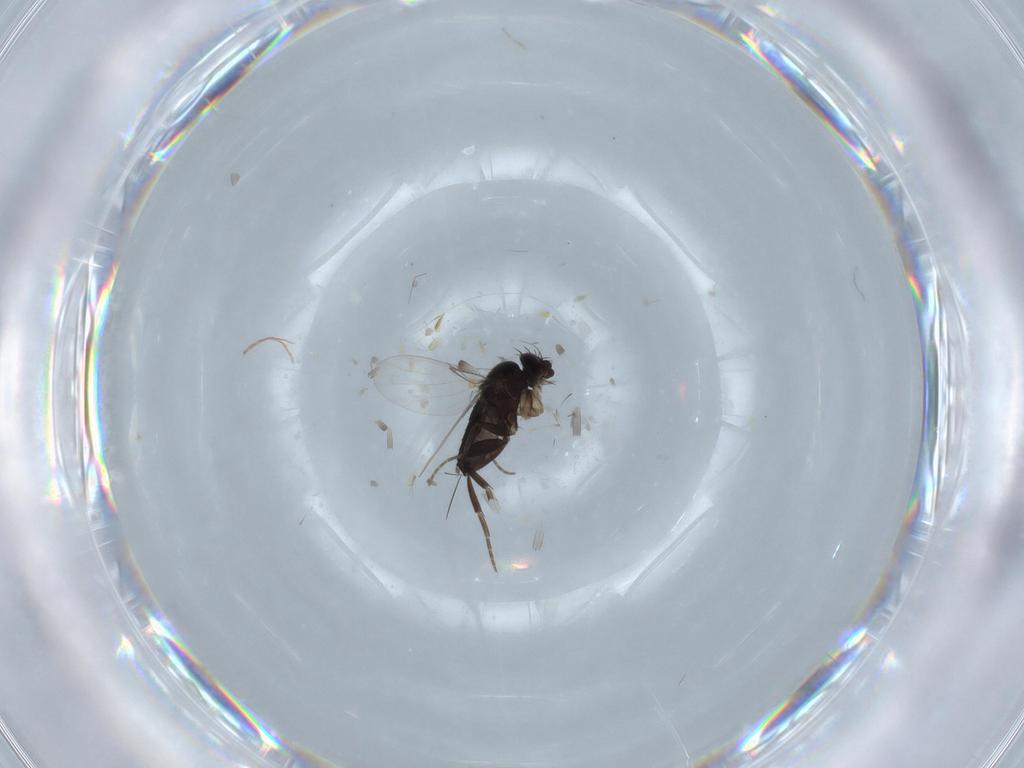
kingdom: Animalia
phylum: Arthropoda
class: Insecta
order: Diptera
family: Phoridae
